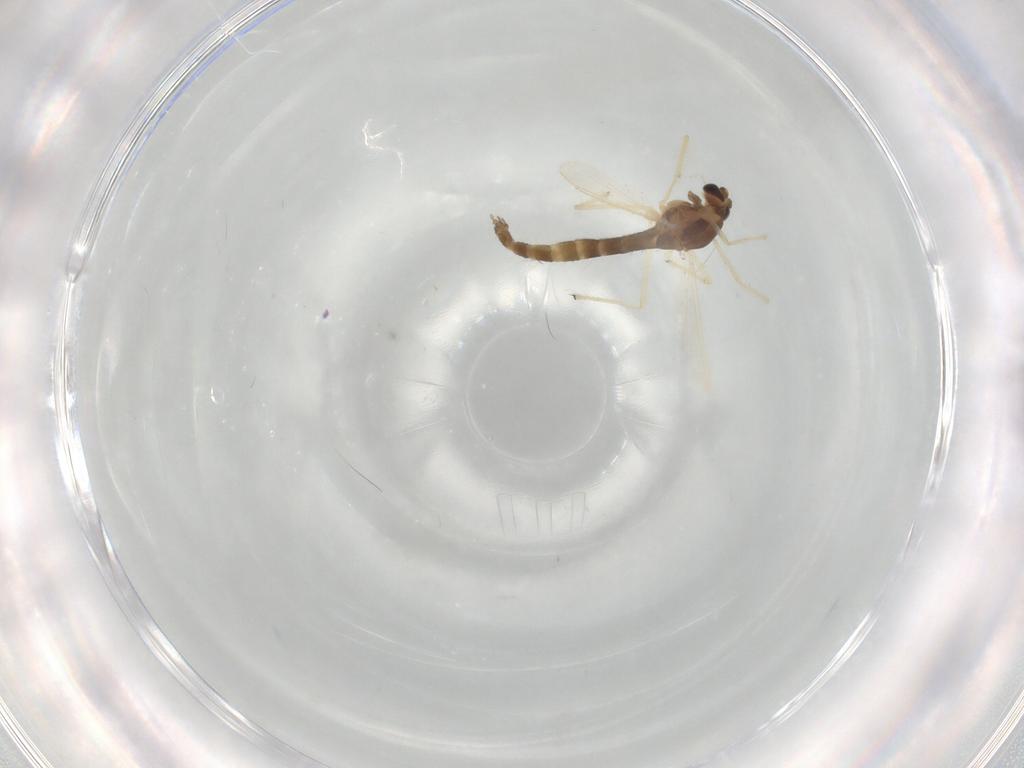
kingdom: Animalia
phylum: Arthropoda
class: Insecta
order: Diptera
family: Chironomidae
